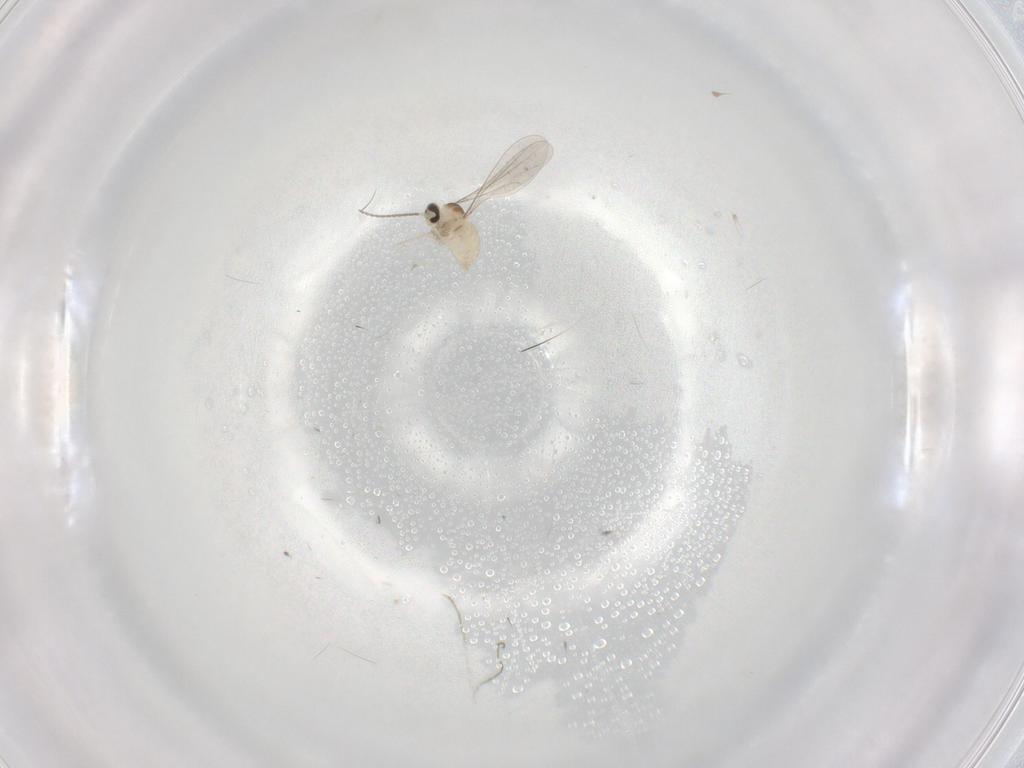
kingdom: Animalia
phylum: Arthropoda
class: Insecta
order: Diptera
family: Cecidomyiidae
